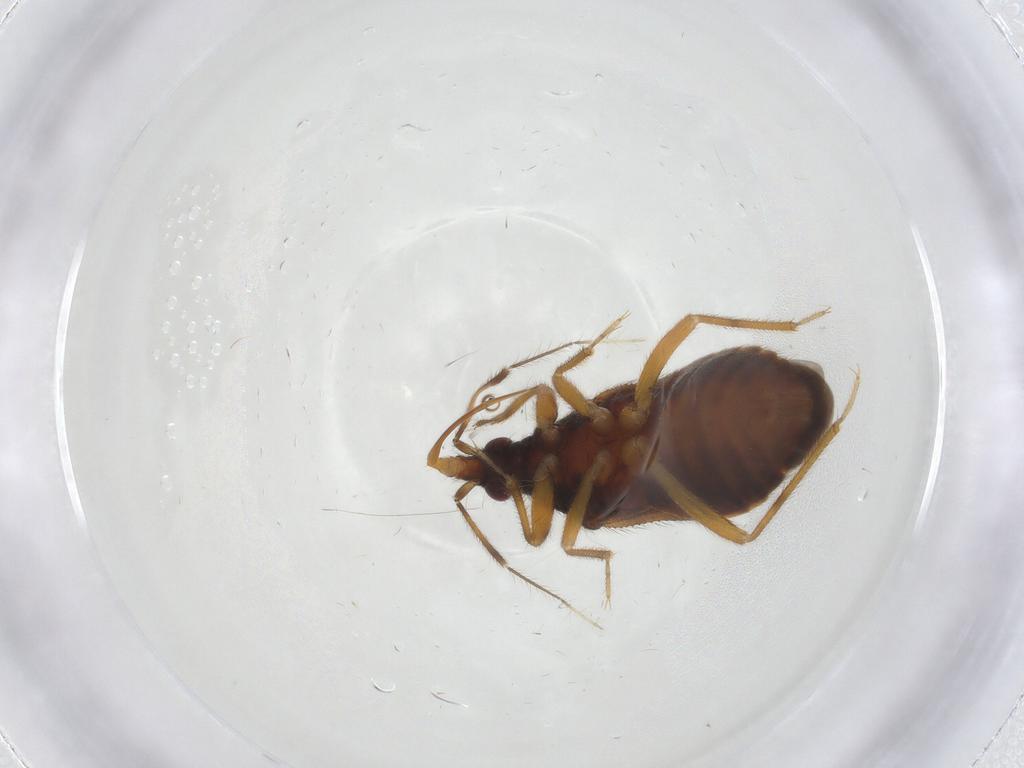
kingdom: Animalia
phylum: Arthropoda
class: Insecta
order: Hemiptera
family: Anthocoridae
